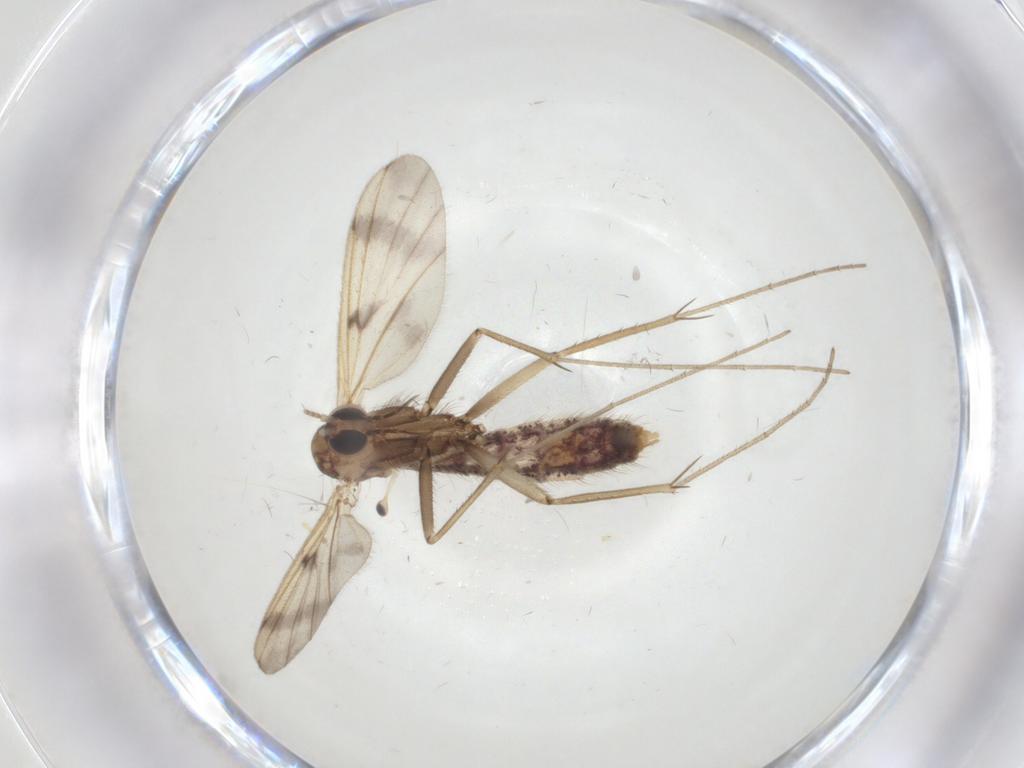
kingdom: Animalia
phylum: Arthropoda
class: Insecta
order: Diptera
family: Mycetophilidae
